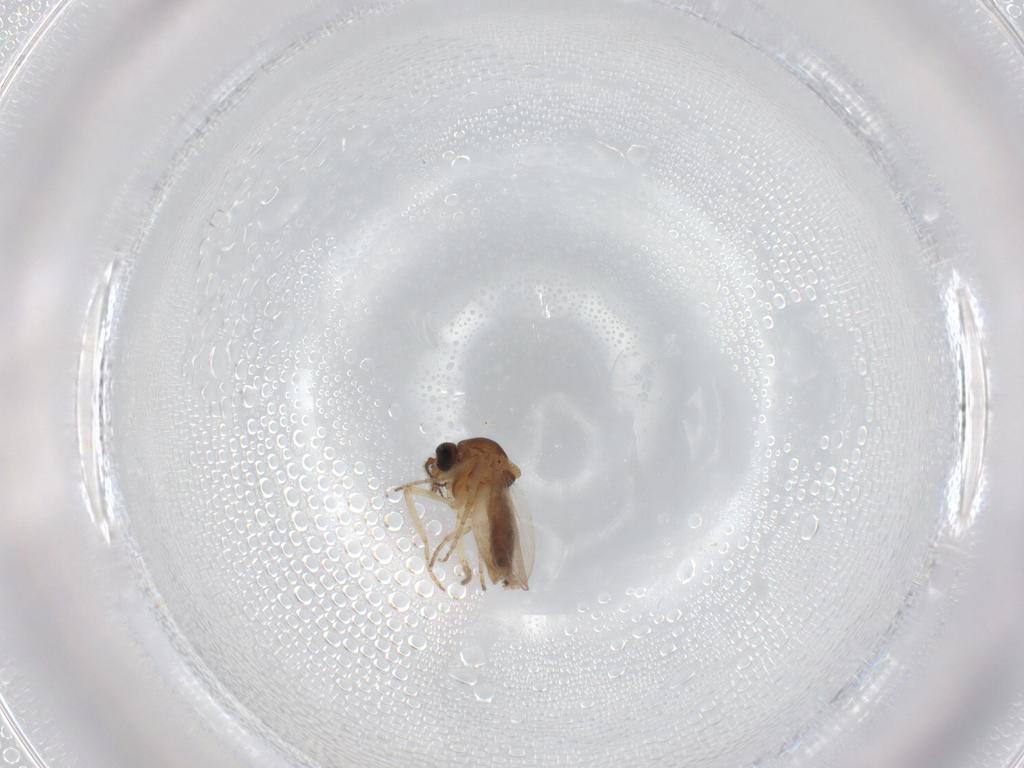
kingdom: Animalia
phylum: Arthropoda
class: Insecta
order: Diptera
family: Ceratopogonidae
